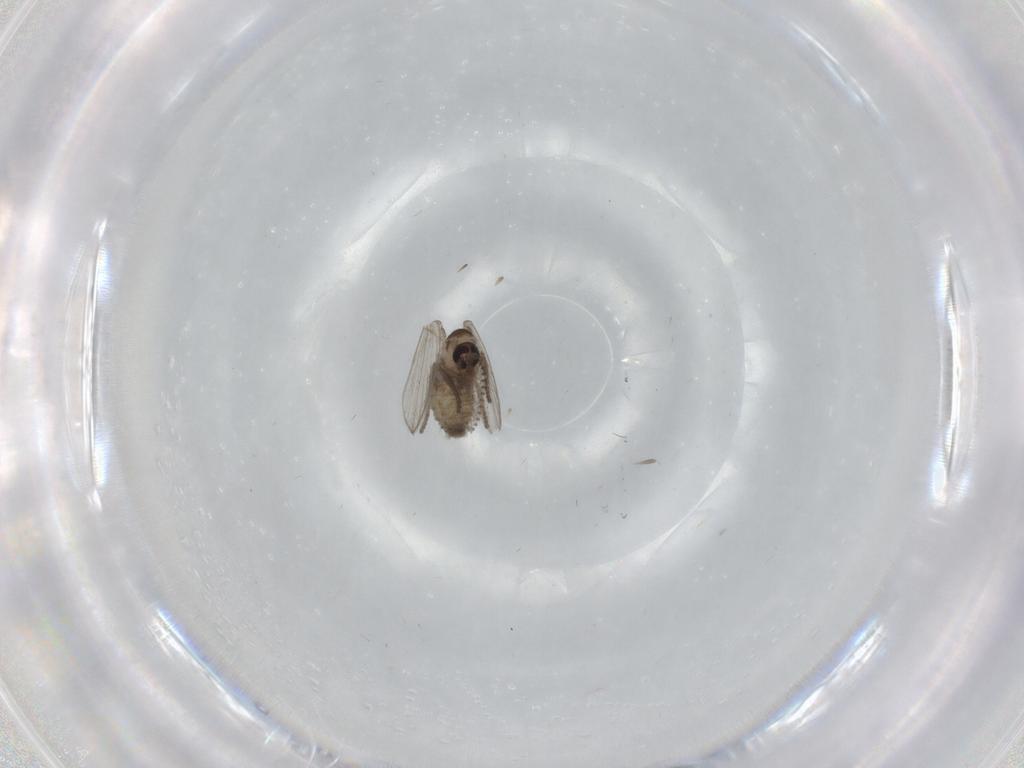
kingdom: Animalia
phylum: Arthropoda
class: Insecta
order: Diptera
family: Psychodidae
